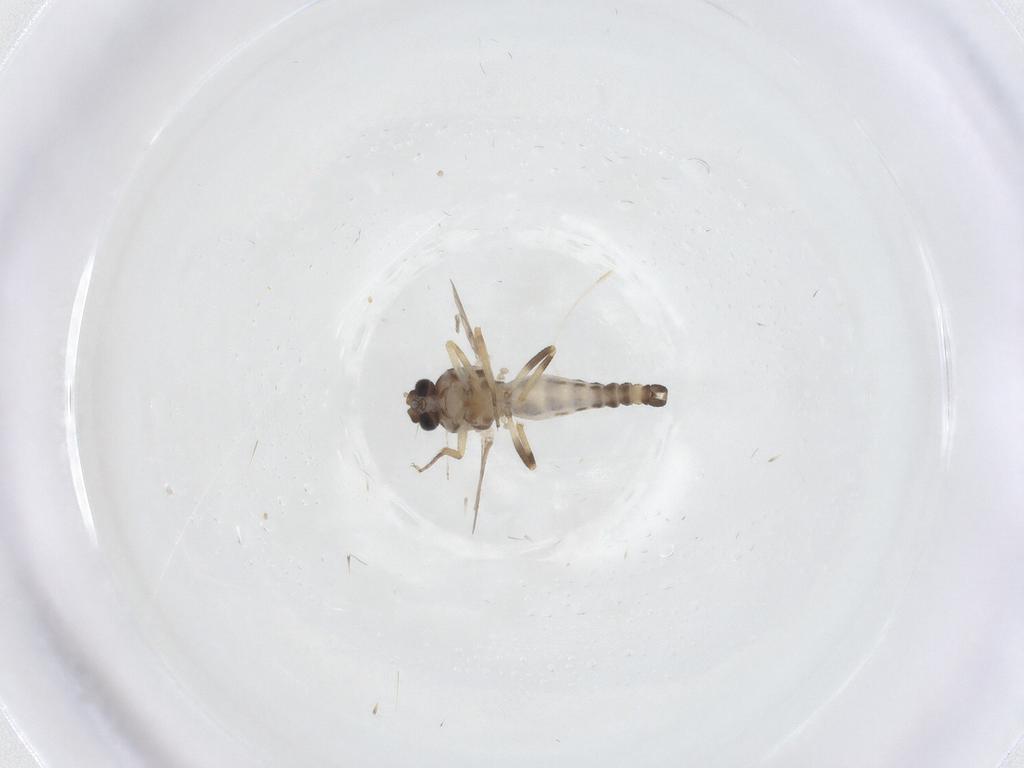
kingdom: Animalia
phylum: Arthropoda
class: Insecta
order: Diptera
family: Ceratopogonidae
